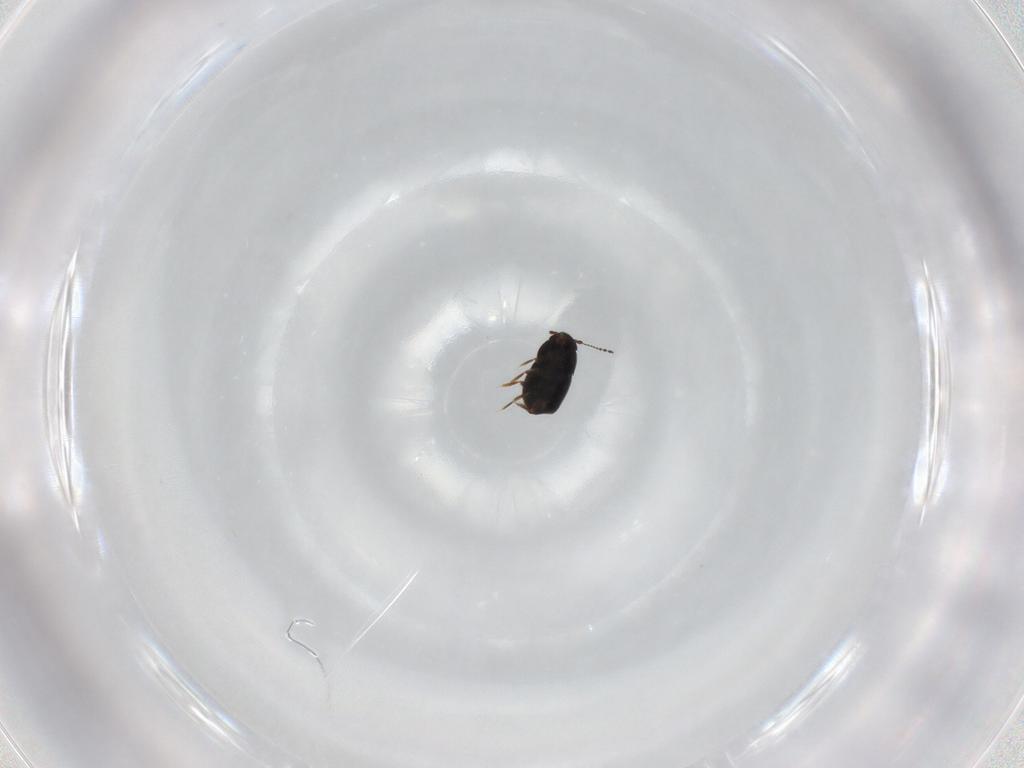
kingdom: Animalia
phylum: Arthropoda
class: Insecta
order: Coleoptera
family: Ptiliidae
